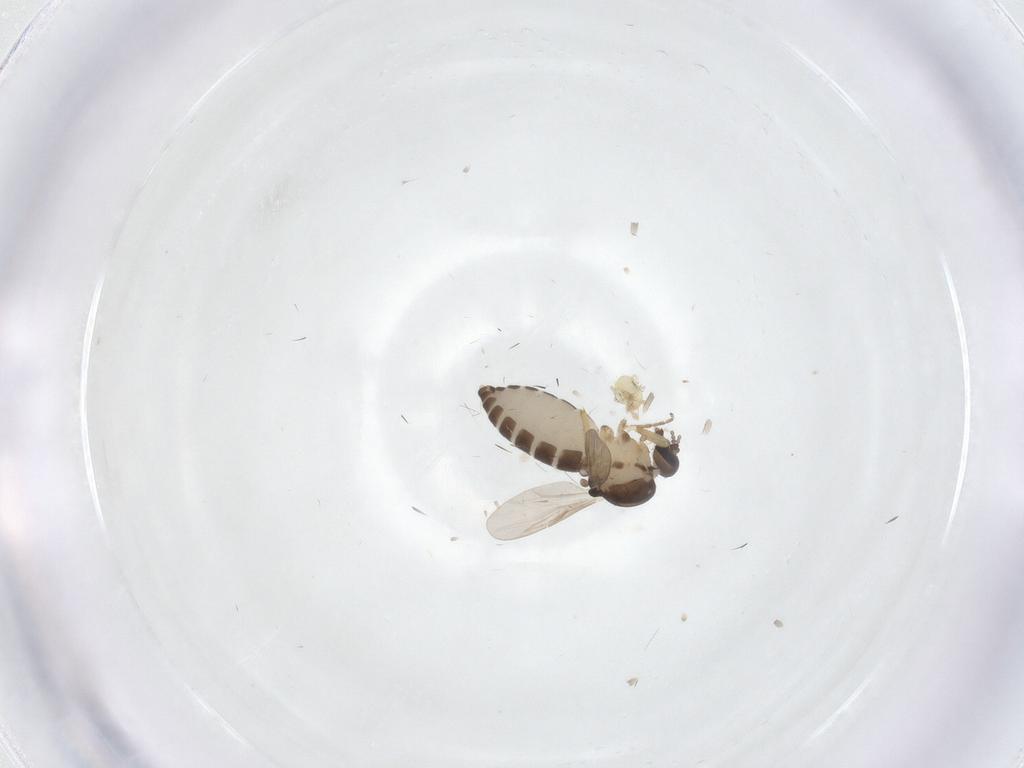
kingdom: Animalia
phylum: Arthropoda
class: Insecta
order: Diptera
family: Ceratopogonidae
